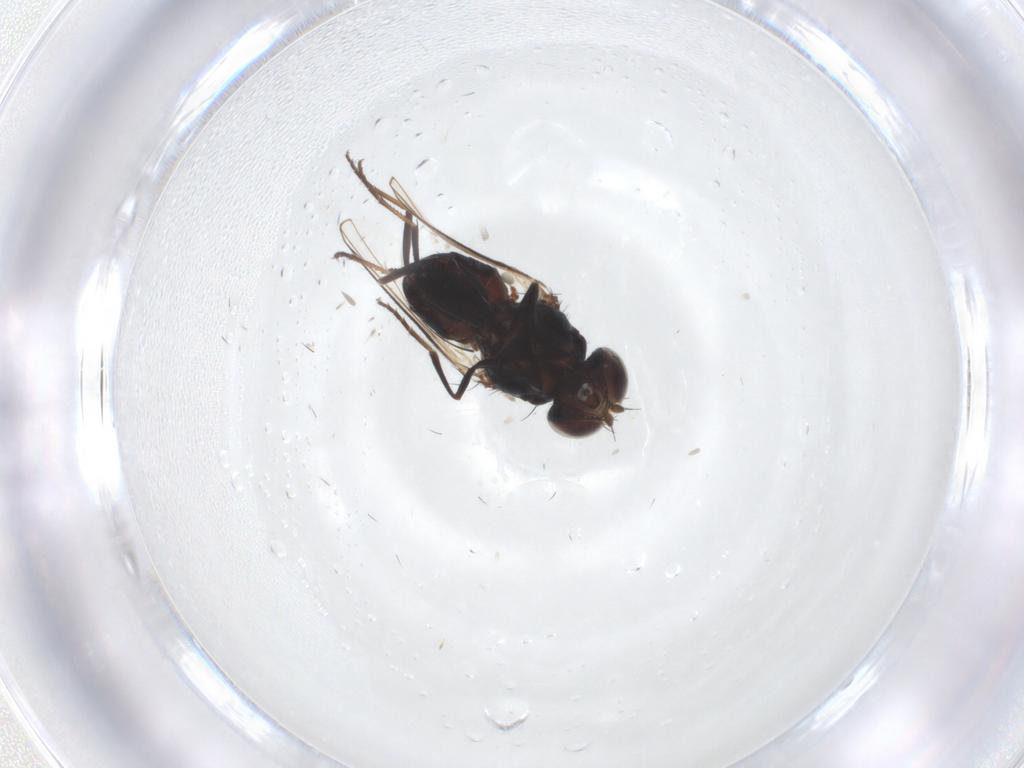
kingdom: Animalia
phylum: Arthropoda
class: Insecta
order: Diptera
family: Carnidae
